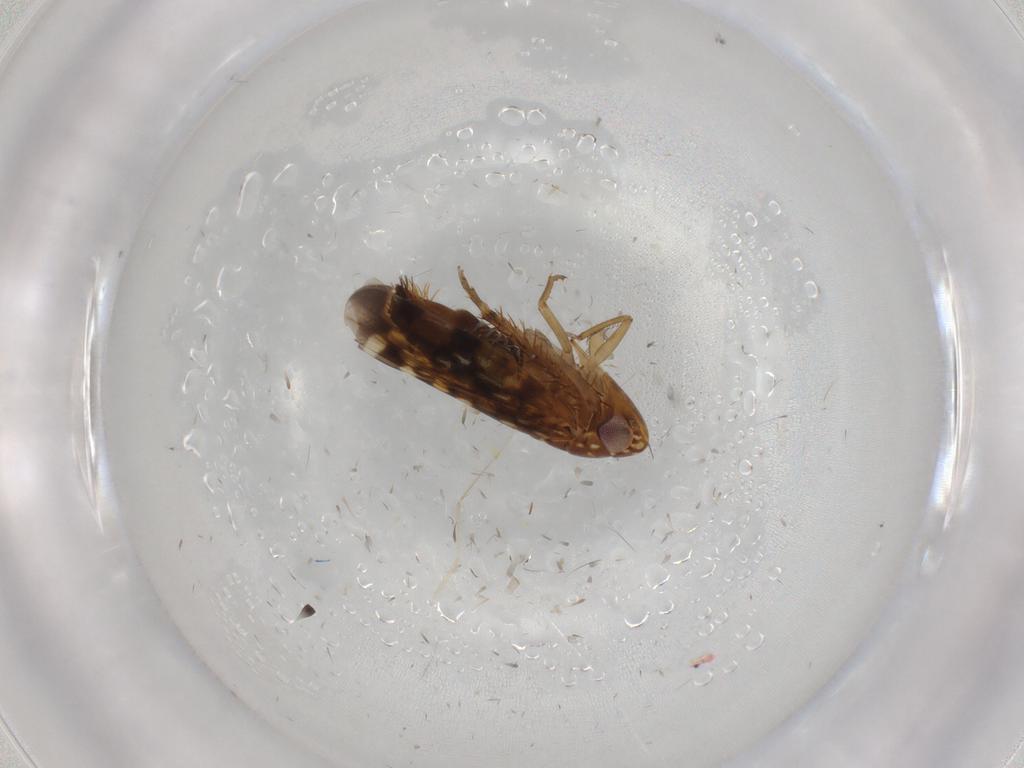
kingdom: Animalia
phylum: Arthropoda
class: Insecta
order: Hemiptera
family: Cicadellidae
